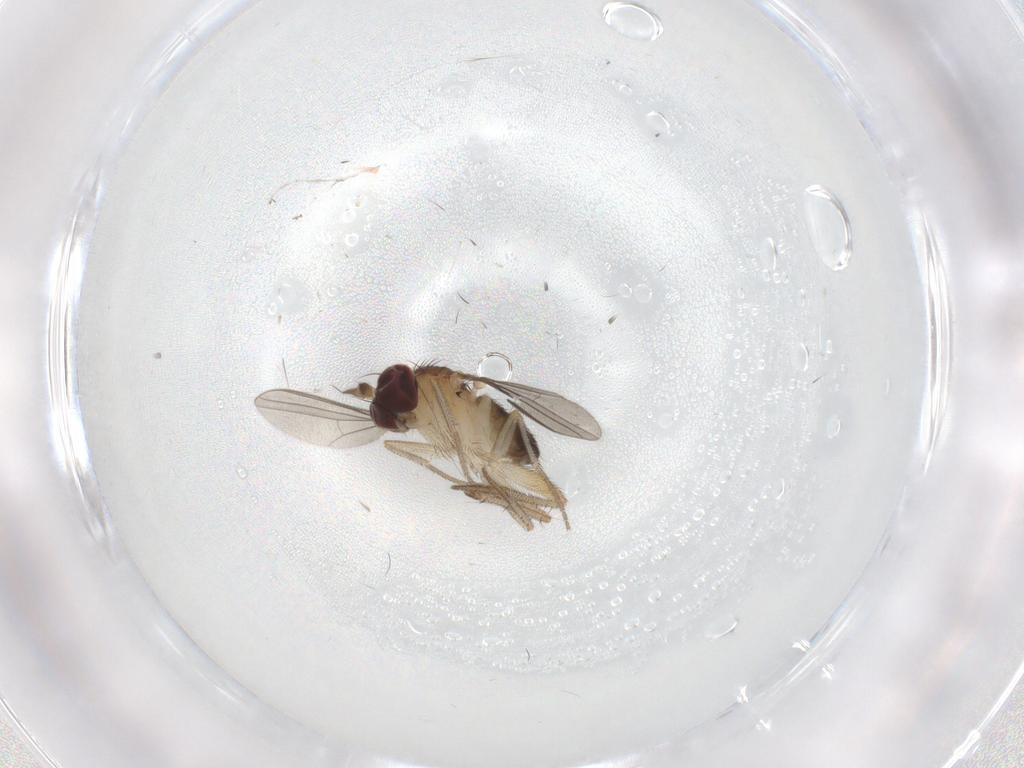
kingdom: Animalia
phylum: Arthropoda
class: Insecta
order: Diptera
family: Dolichopodidae
